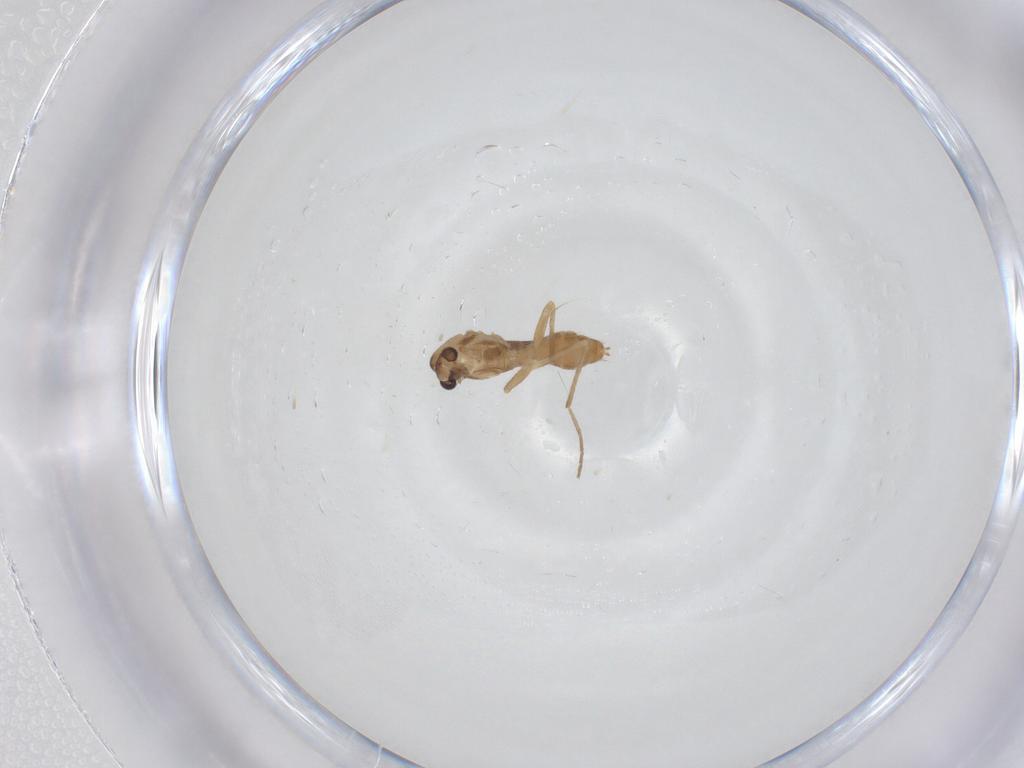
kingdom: Animalia
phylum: Arthropoda
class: Insecta
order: Diptera
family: Chironomidae
